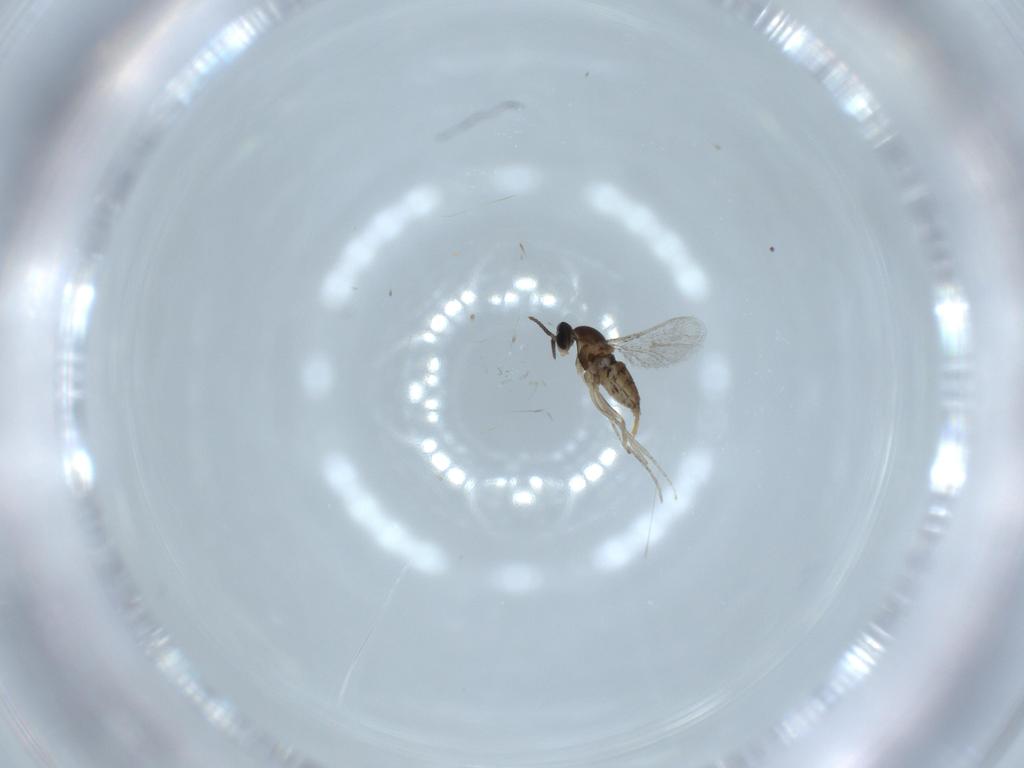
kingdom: Animalia
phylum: Arthropoda
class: Insecta
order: Diptera
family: Cecidomyiidae
